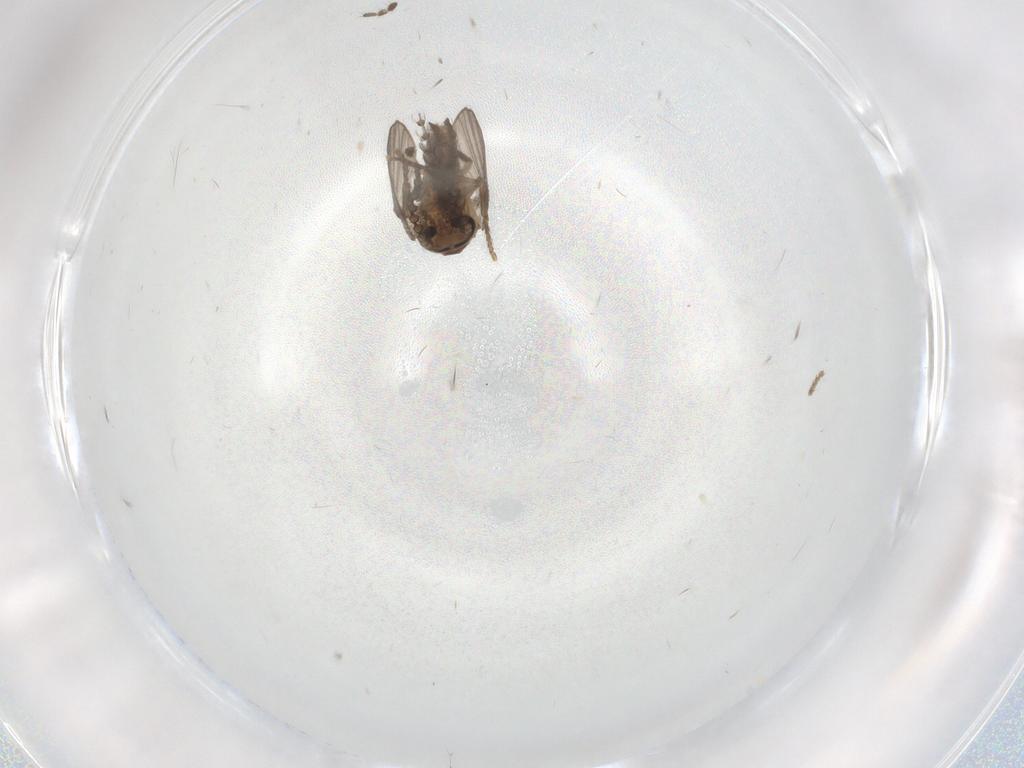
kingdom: Animalia
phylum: Arthropoda
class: Insecta
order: Diptera
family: Psychodidae
